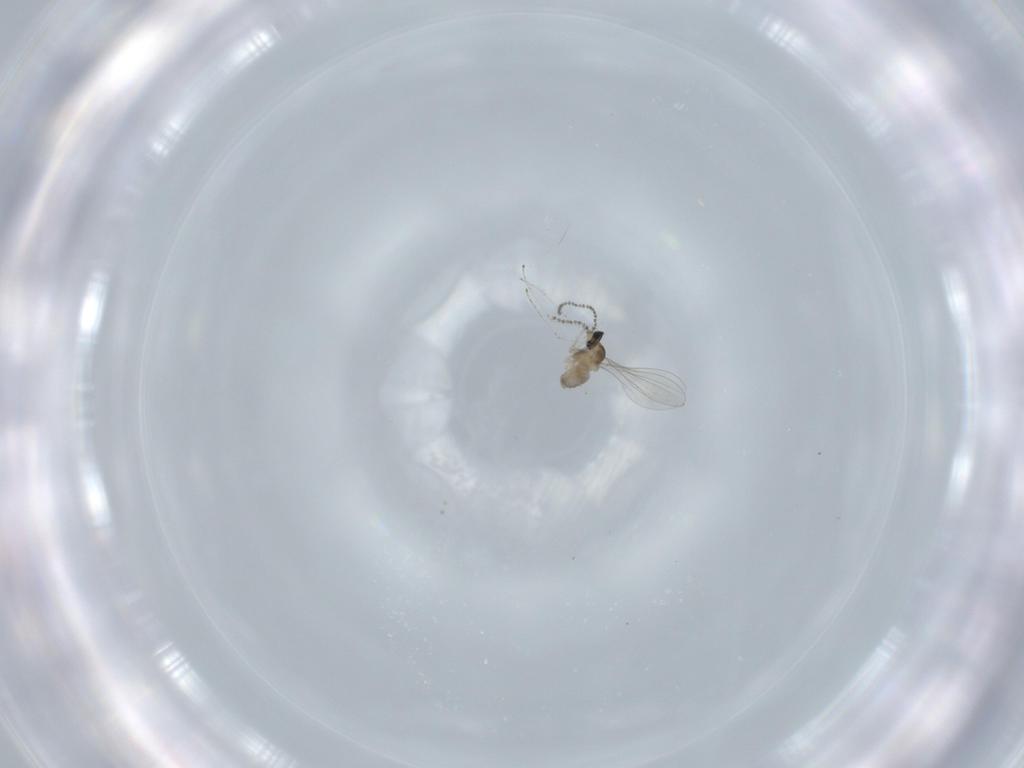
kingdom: Animalia
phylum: Arthropoda
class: Insecta
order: Diptera
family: Cecidomyiidae
